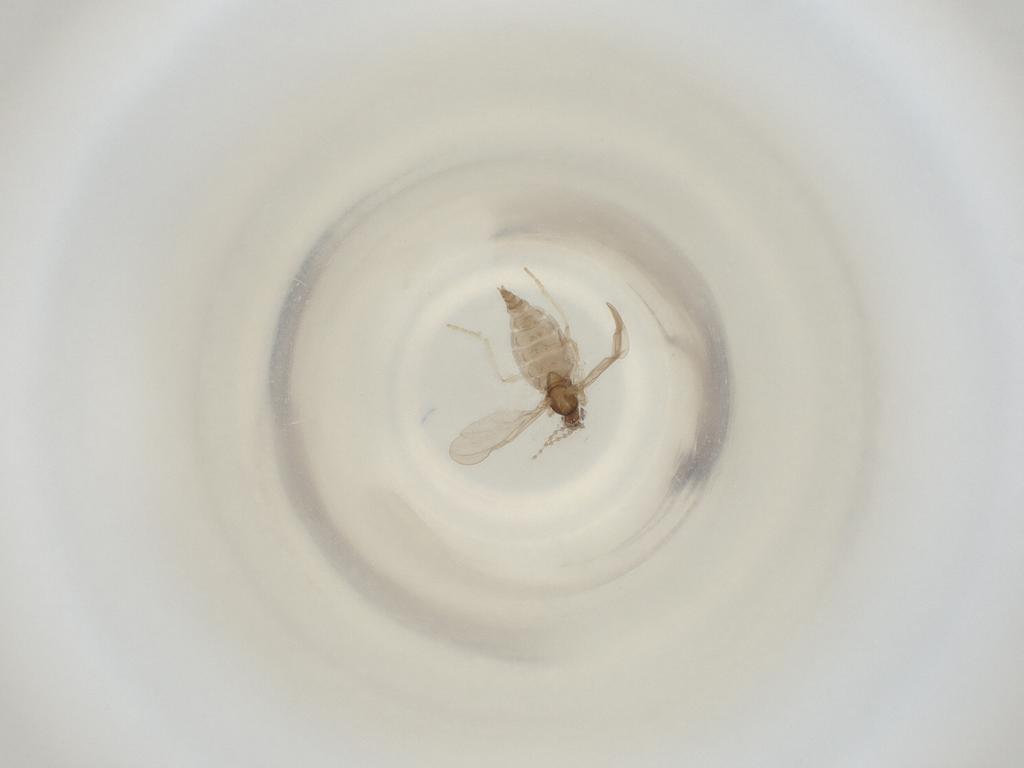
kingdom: Animalia
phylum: Arthropoda
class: Insecta
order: Diptera
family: Cecidomyiidae
